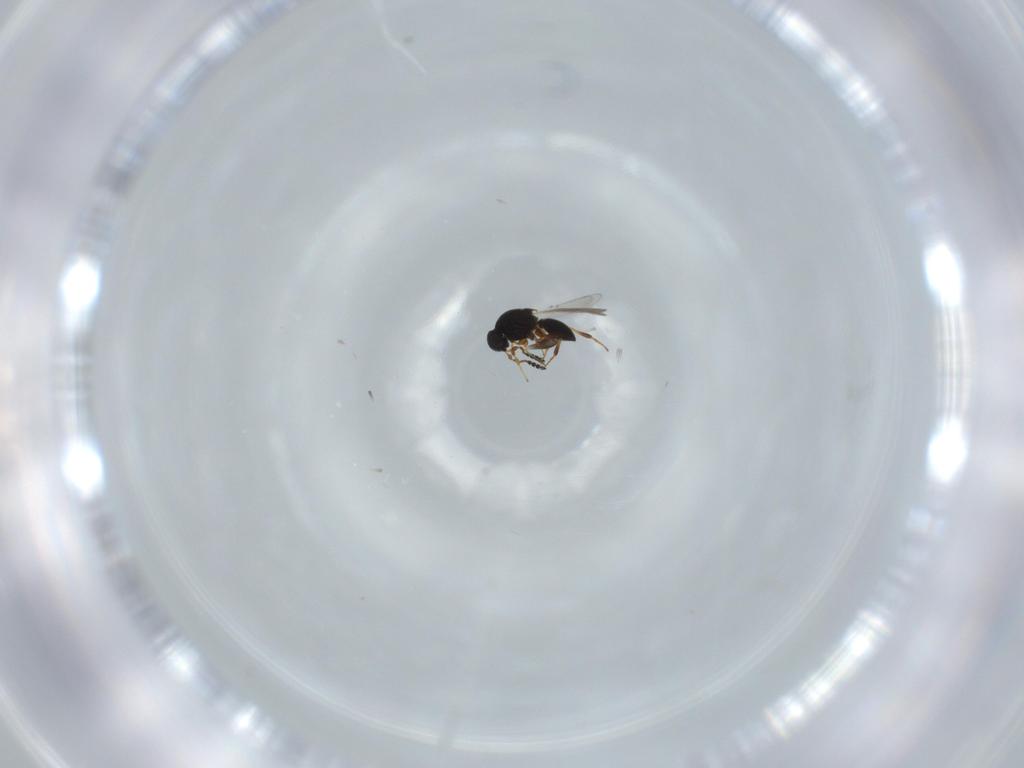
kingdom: Animalia
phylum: Arthropoda
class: Insecta
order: Hymenoptera
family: Platygastridae
